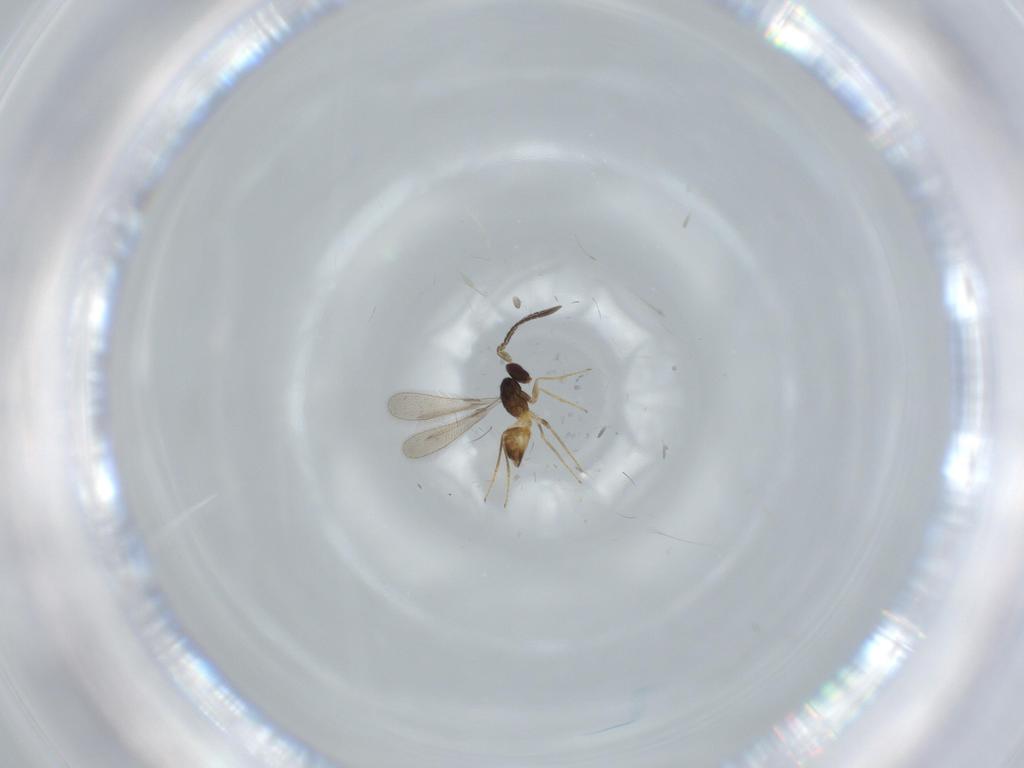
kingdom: Animalia
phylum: Arthropoda
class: Insecta
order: Hymenoptera
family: Mymaridae
